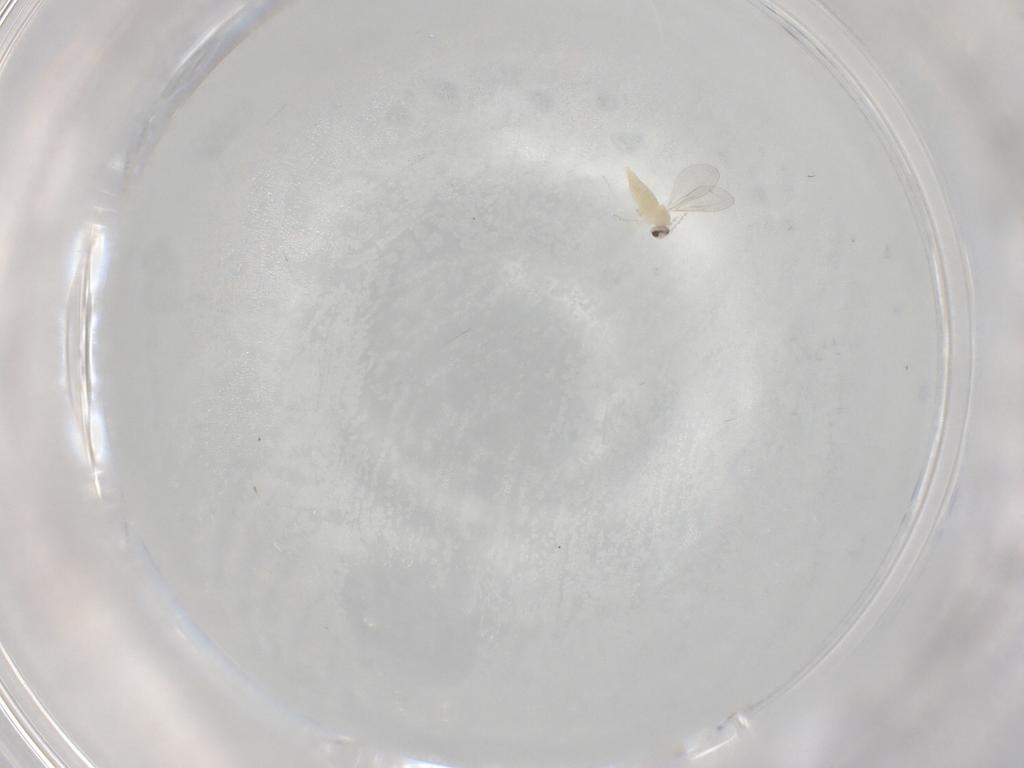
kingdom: Animalia
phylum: Arthropoda
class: Insecta
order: Diptera
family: Cecidomyiidae
